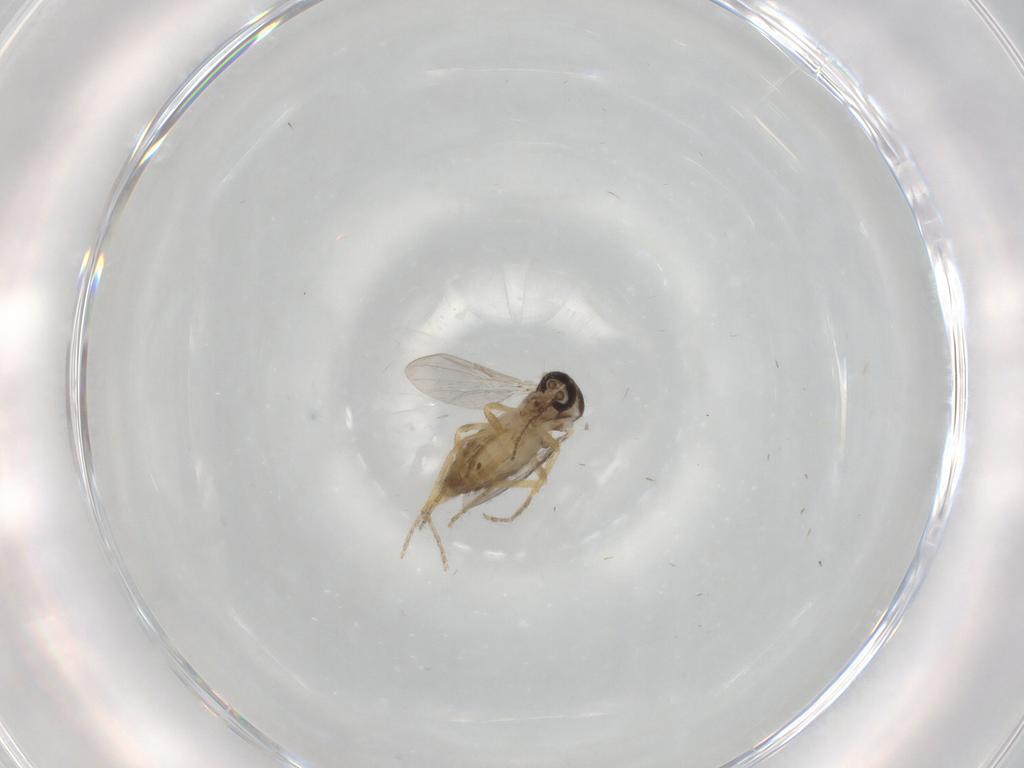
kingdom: Animalia
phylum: Arthropoda
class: Insecta
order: Diptera
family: Ceratopogonidae
